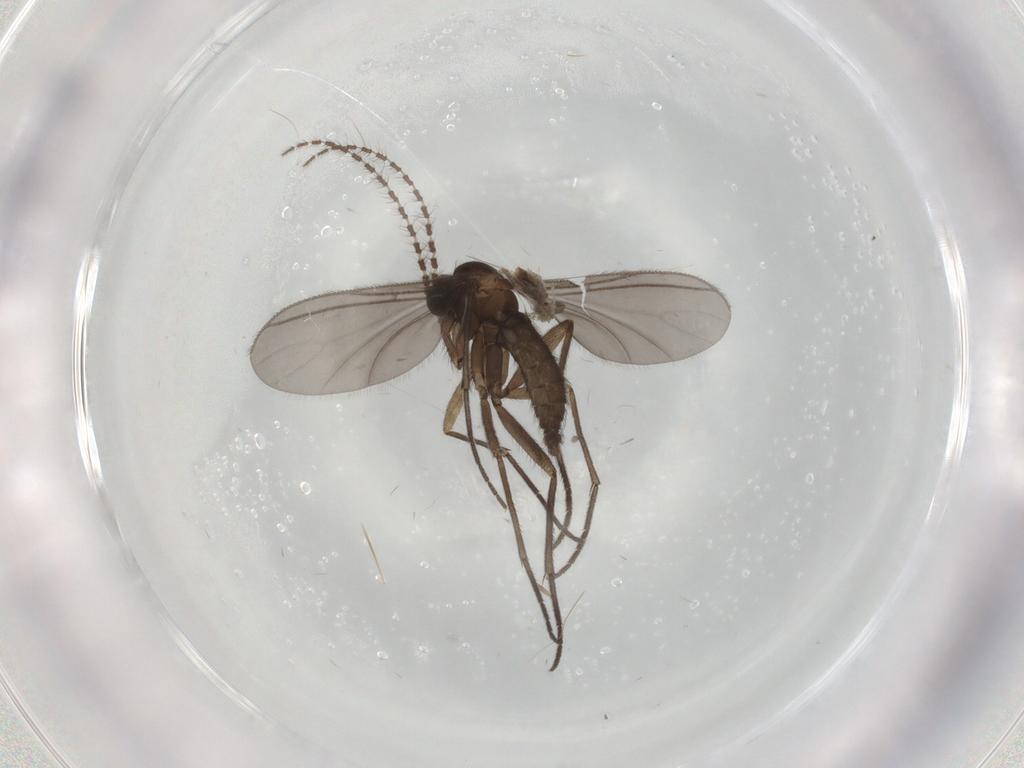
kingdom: Animalia
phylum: Arthropoda
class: Insecta
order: Diptera
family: Sciaridae
